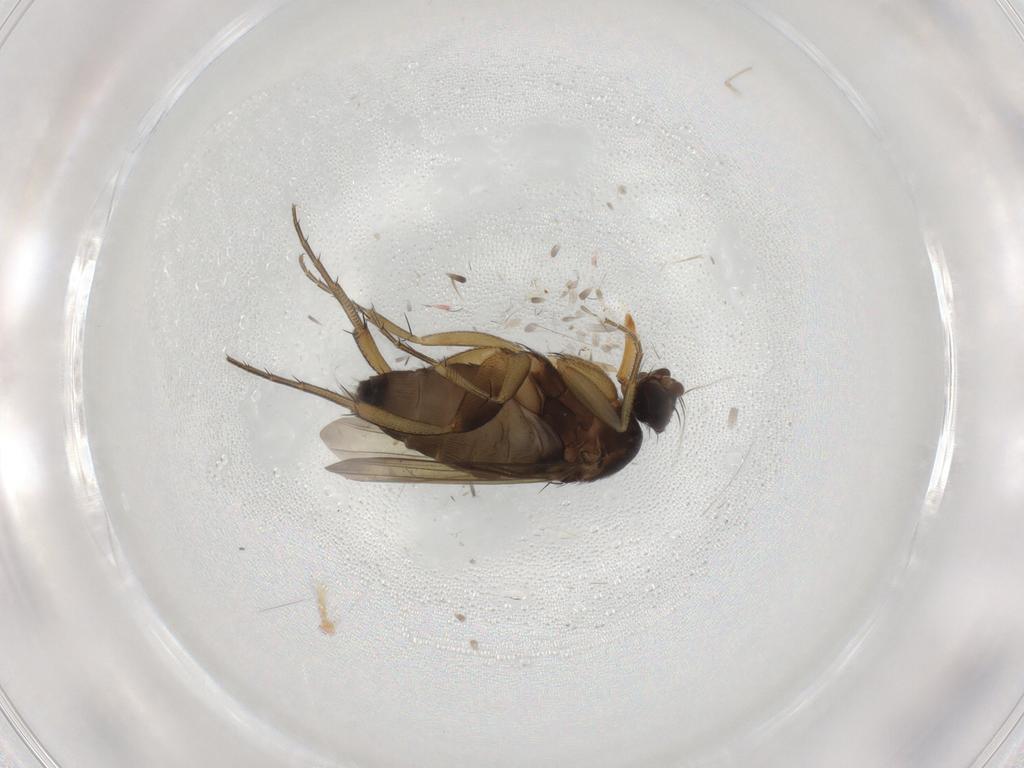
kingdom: Animalia
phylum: Arthropoda
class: Insecta
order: Diptera
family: Phoridae
